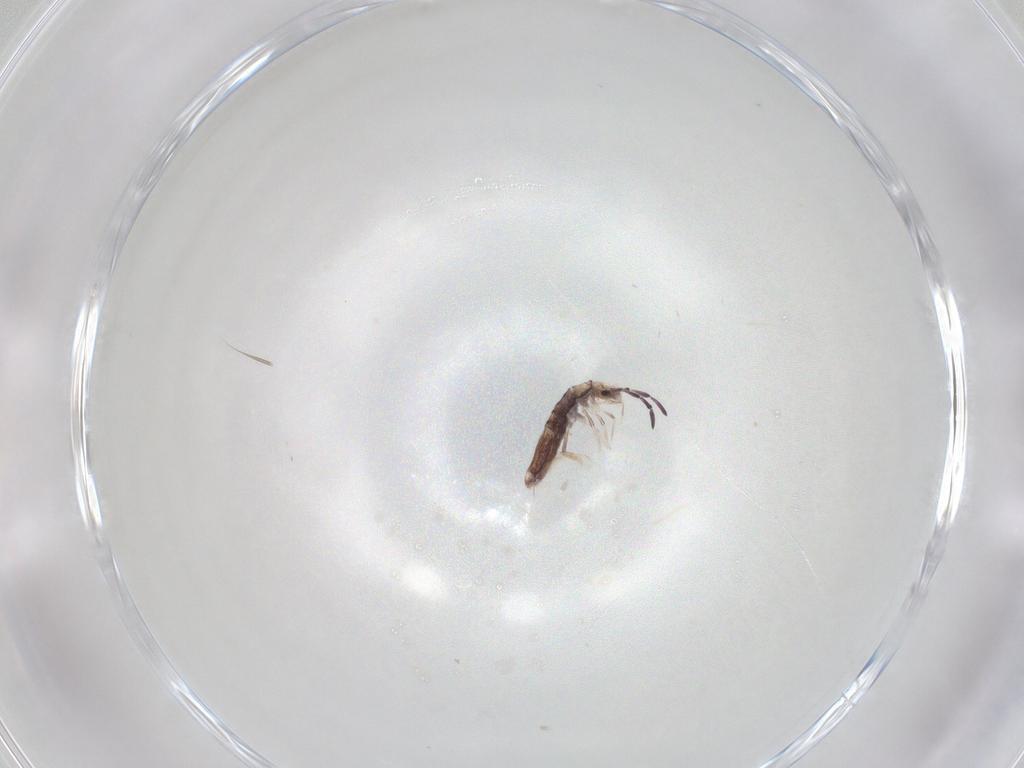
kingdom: Animalia
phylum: Arthropoda
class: Collembola
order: Poduromorpha
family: Hypogastruridae
